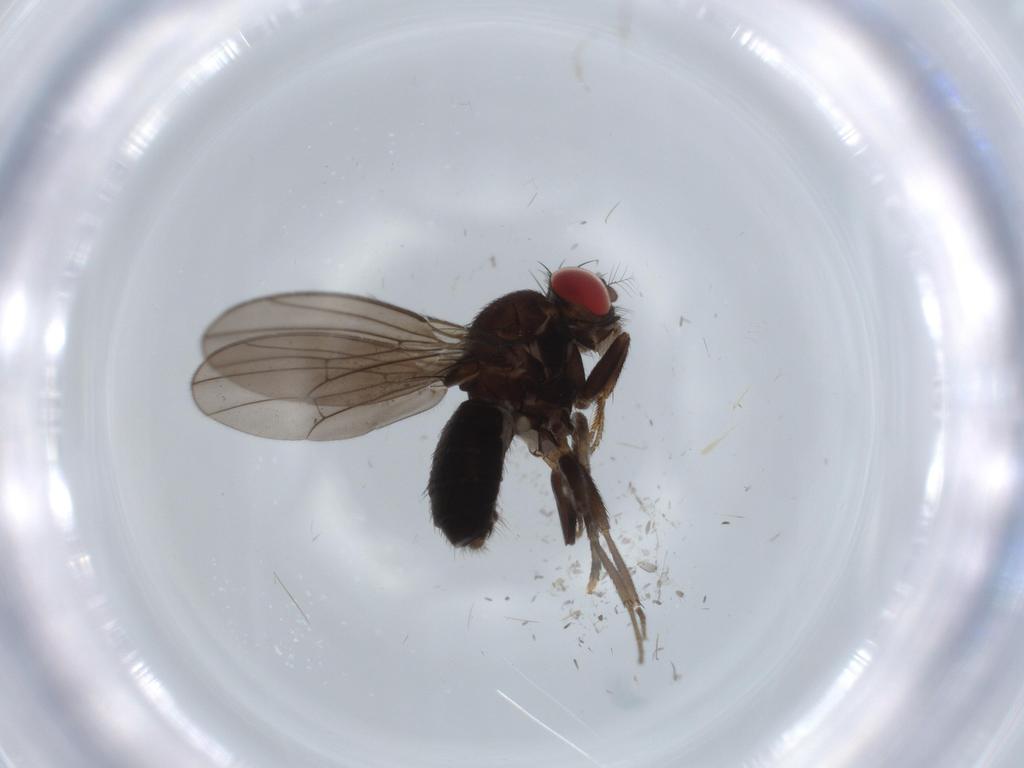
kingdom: Animalia
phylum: Arthropoda
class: Insecta
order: Diptera
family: Drosophilidae
